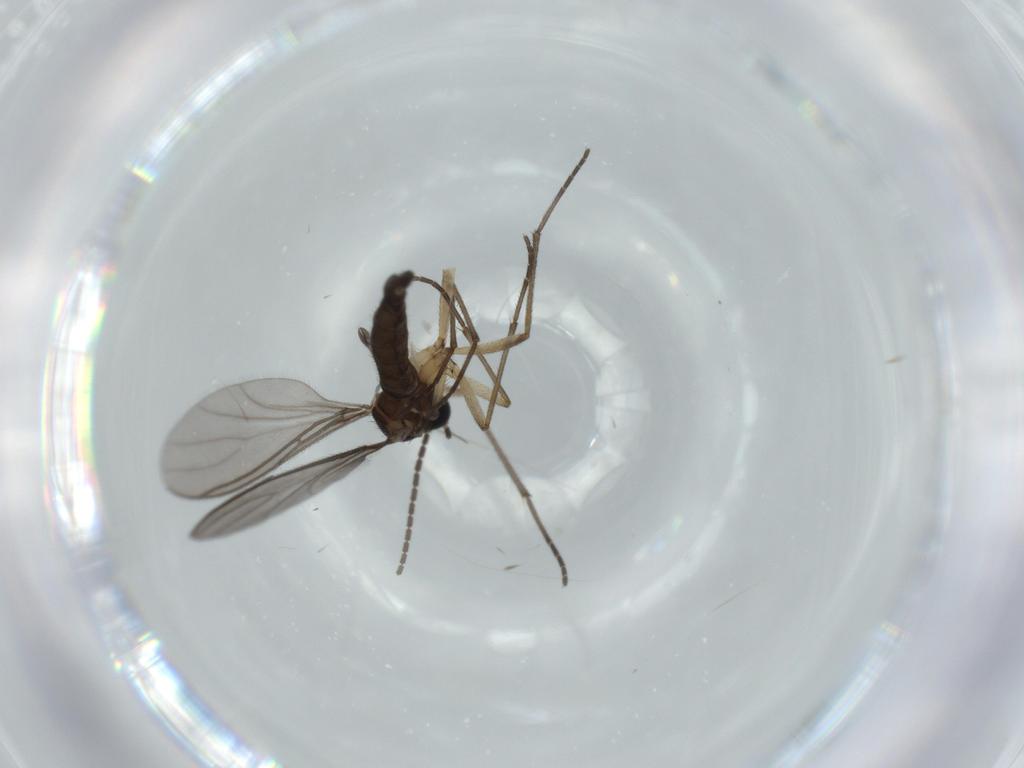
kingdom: Animalia
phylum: Arthropoda
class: Insecta
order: Diptera
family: Sciaridae
